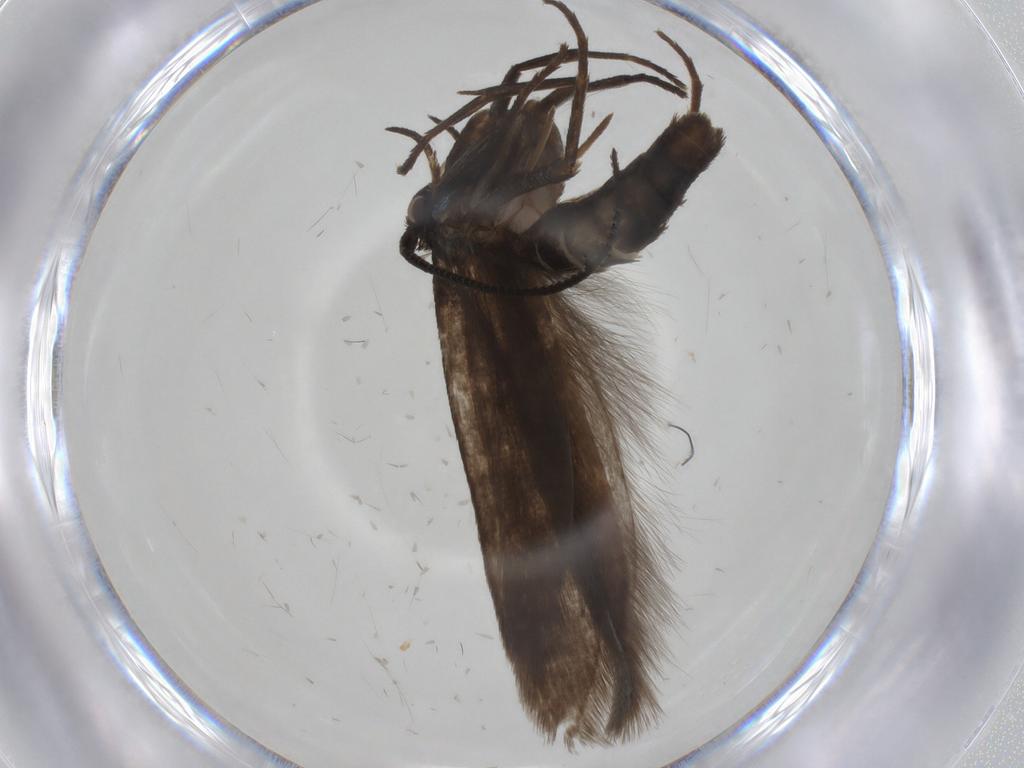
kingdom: Animalia
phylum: Arthropoda
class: Insecta
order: Lepidoptera
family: Argyresthiidae
